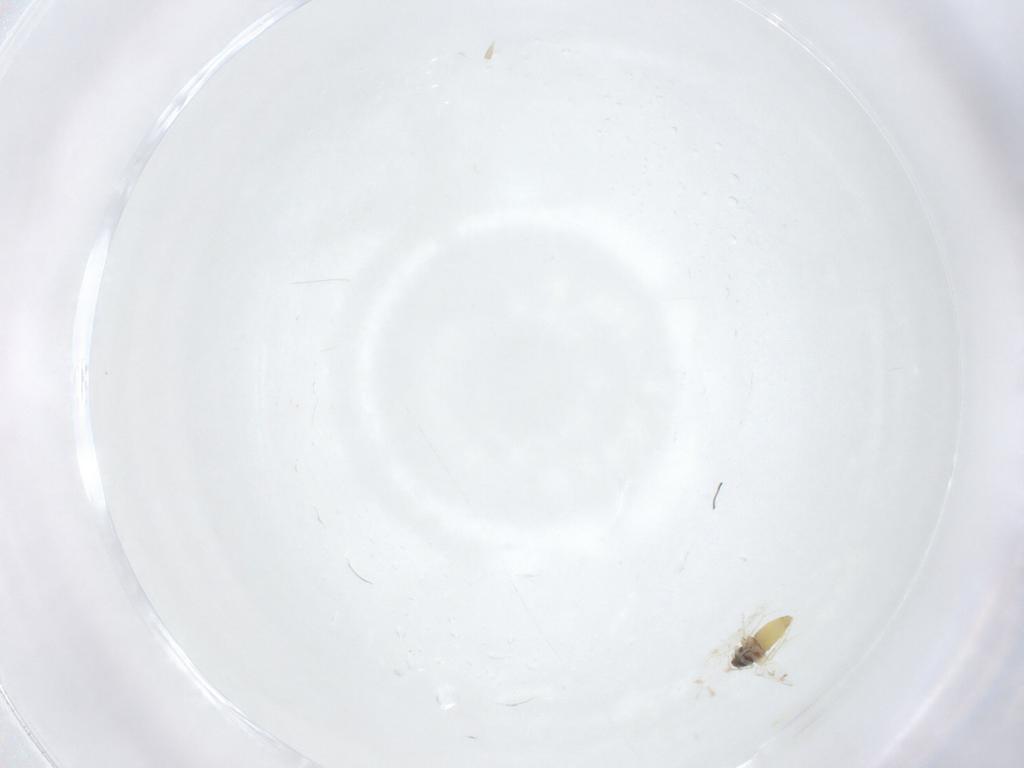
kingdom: Animalia
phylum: Arthropoda
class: Insecta
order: Hemiptera
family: Aleyrodidae
